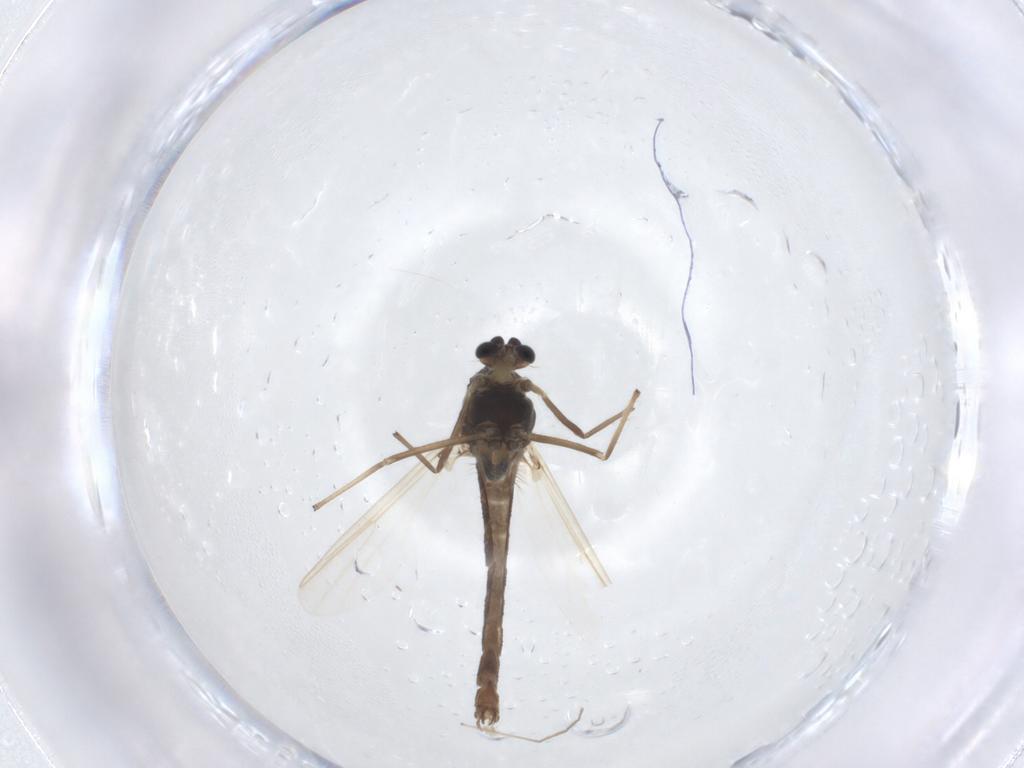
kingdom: Animalia
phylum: Arthropoda
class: Insecta
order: Diptera
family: Chironomidae
